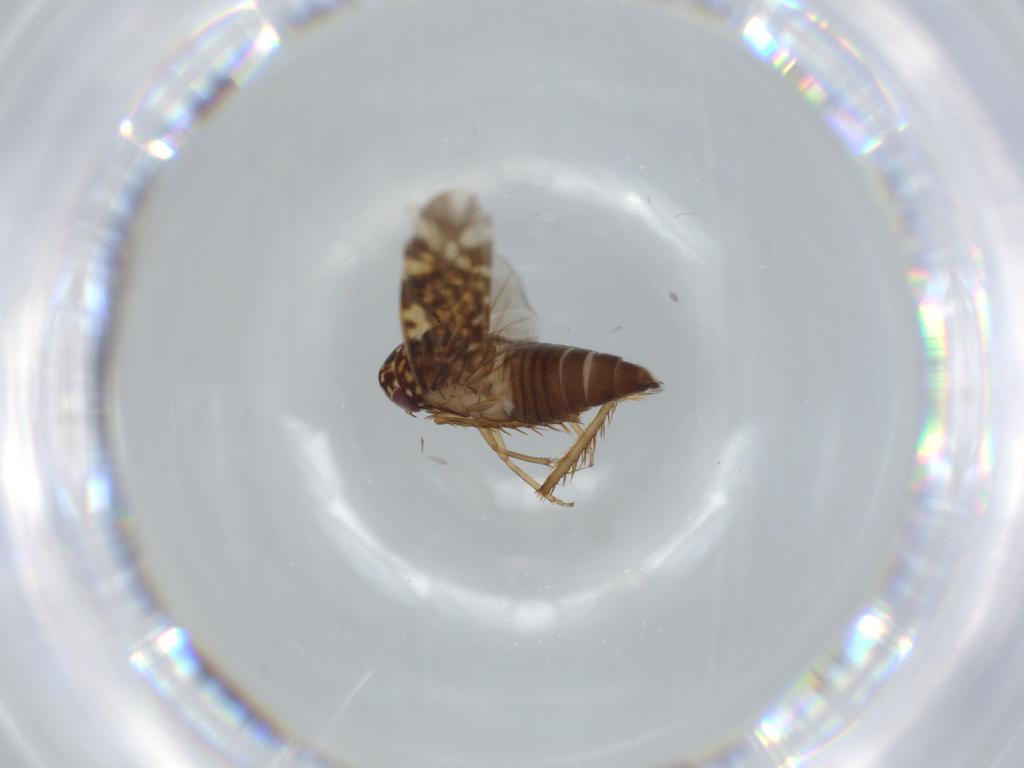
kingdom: Animalia
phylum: Arthropoda
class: Insecta
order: Hemiptera
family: Cicadellidae
